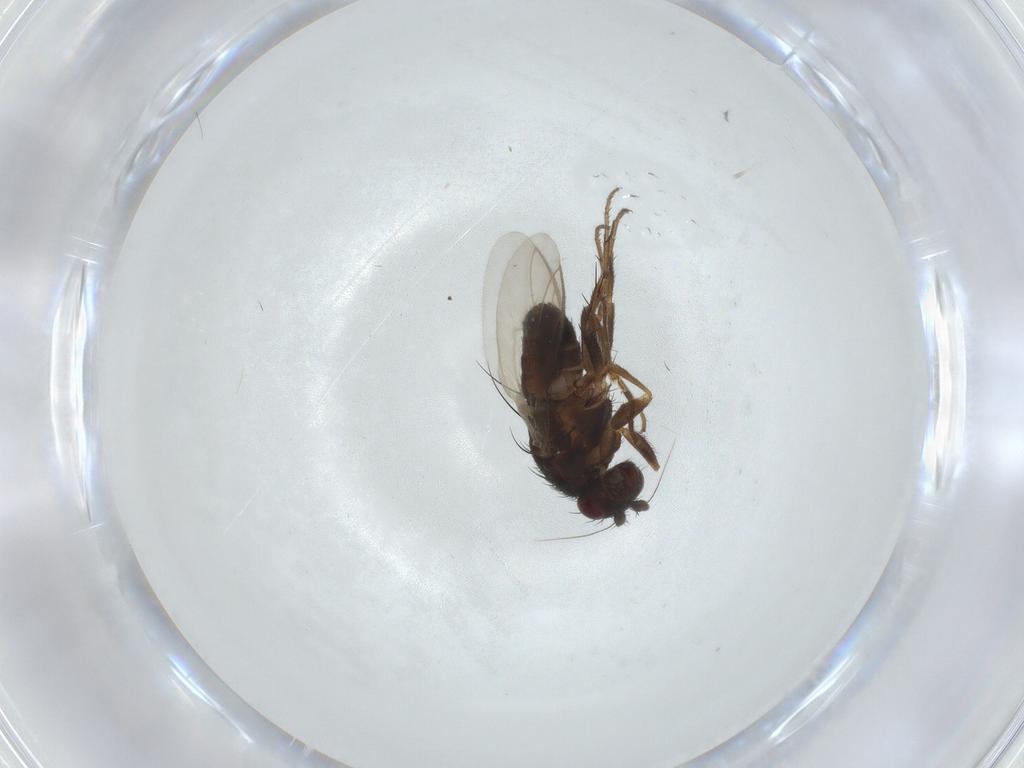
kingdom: Animalia
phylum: Arthropoda
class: Insecta
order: Diptera
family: Sphaeroceridae
